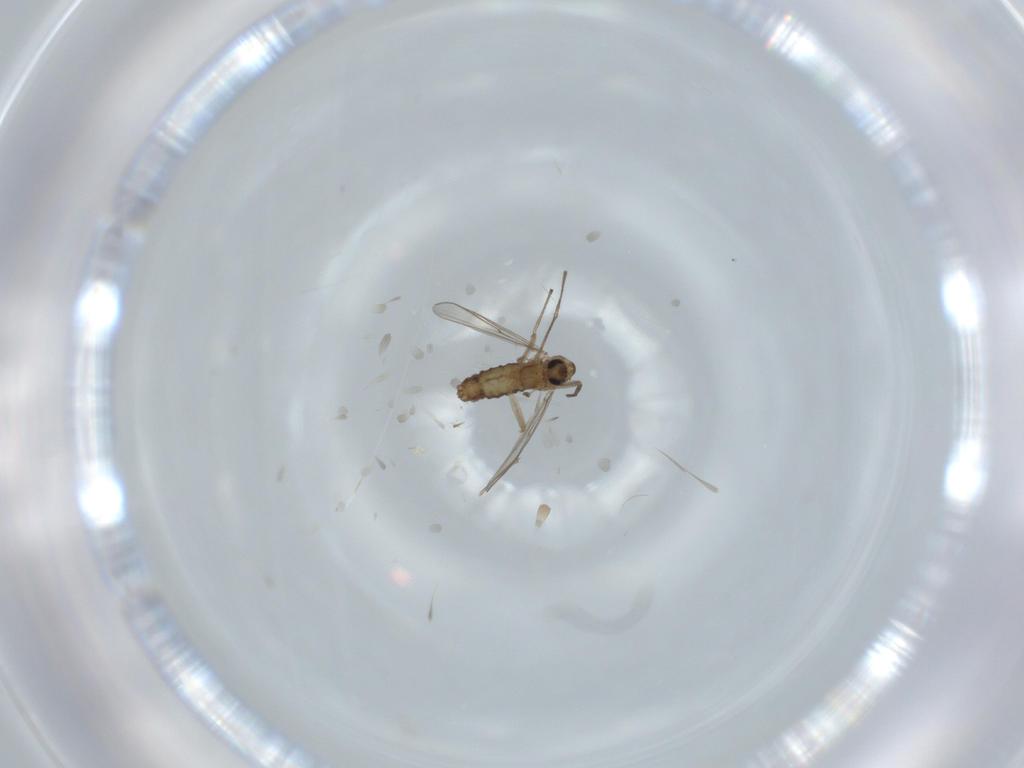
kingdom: Animalia
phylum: Arthropoda
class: Insecta
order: Diptera
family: Chironomidae
